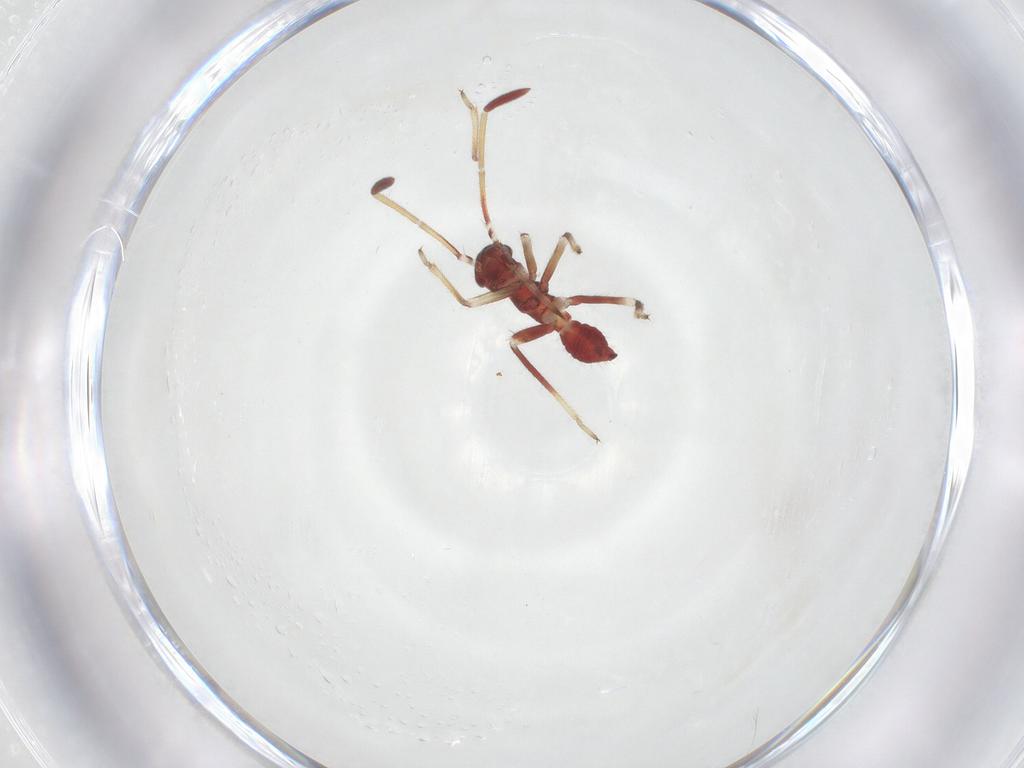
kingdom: Animalia
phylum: Arthropoda
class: Insecta
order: Hemiptera
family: Miridae
